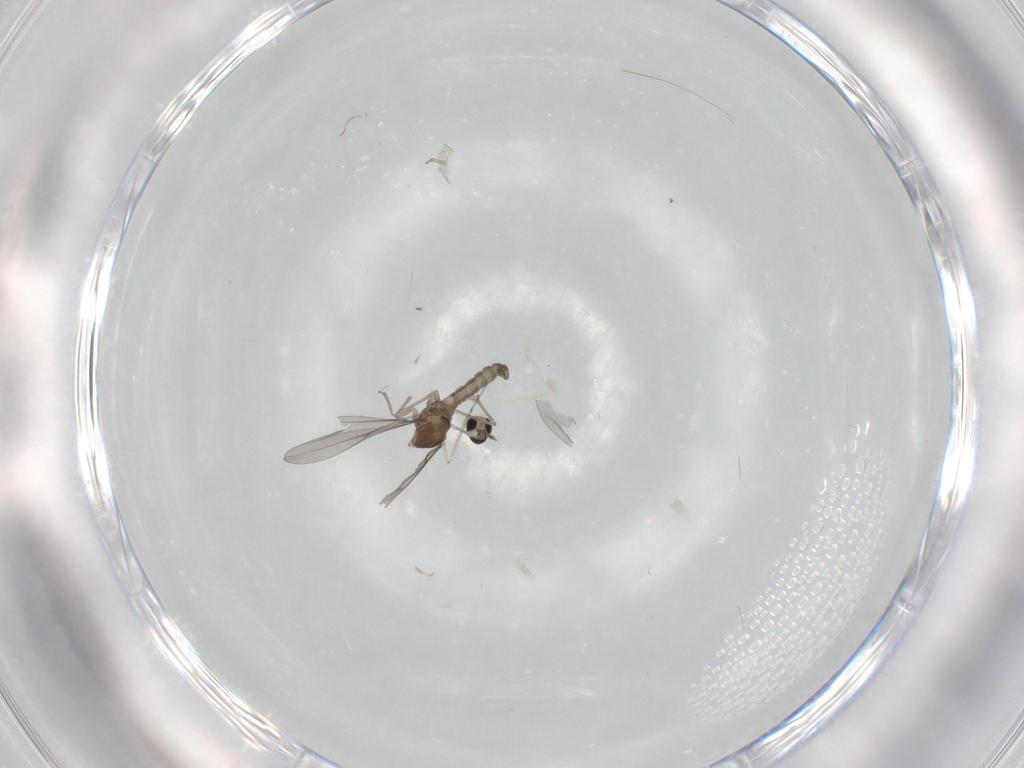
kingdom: Animalia
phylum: Arthropoda
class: Insecta
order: Diptera
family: Sciaridae
